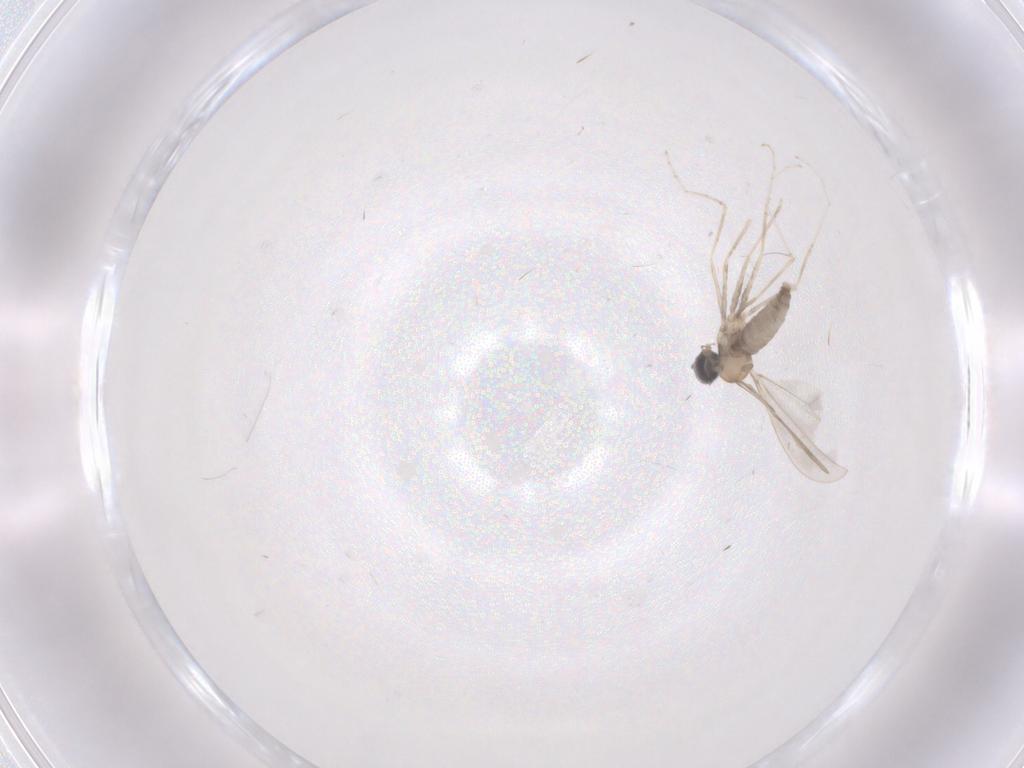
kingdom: Animalia
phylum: Arthropoda
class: Insecta
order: Diptera
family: Cecidomyiidae
